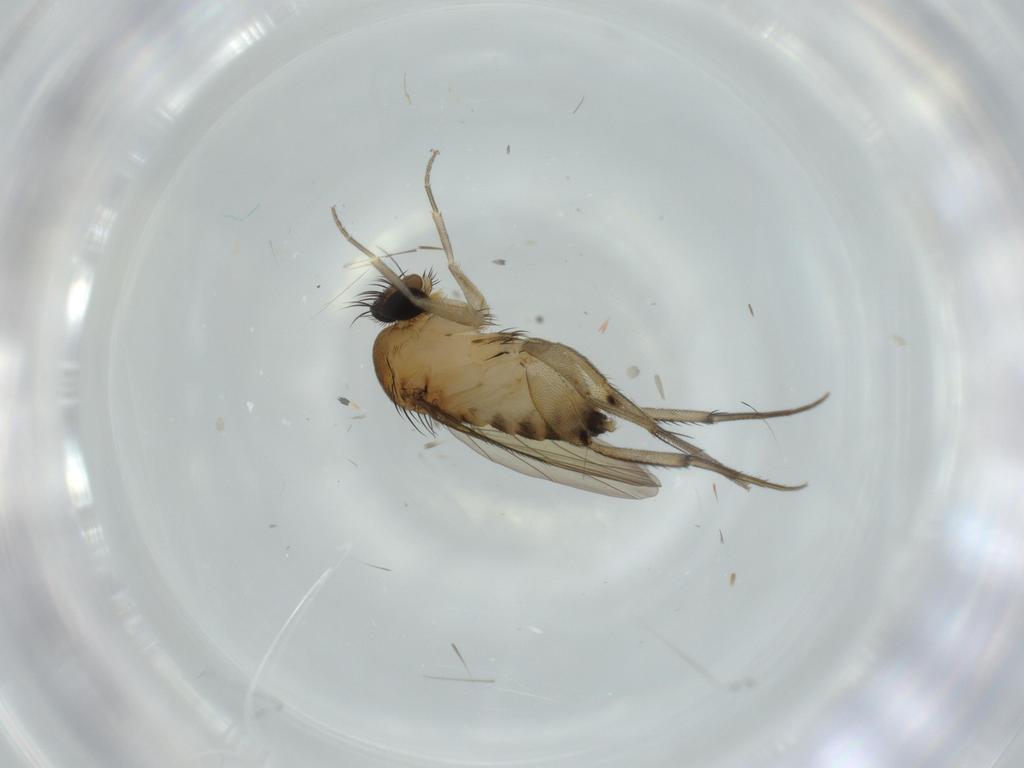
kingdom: Animalia
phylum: Arthropoda
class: Insecta
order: Diptera
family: Phoridae
